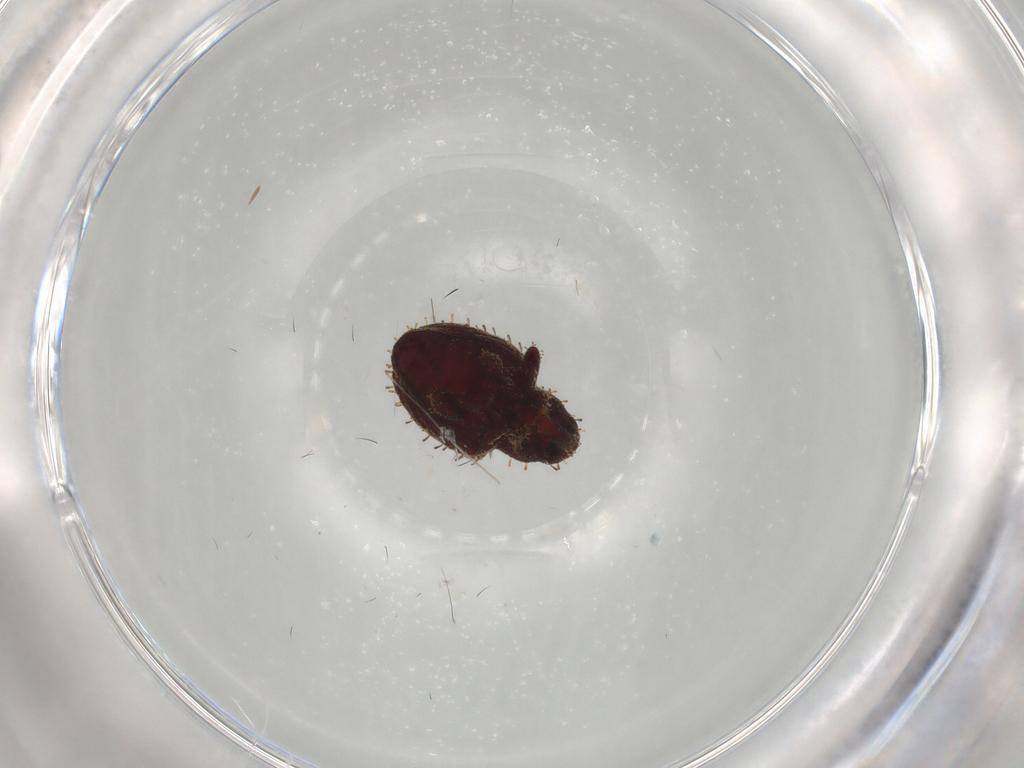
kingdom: Animalia
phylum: Arthropoda
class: Insecta
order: Coleoptera
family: Curculionidae
